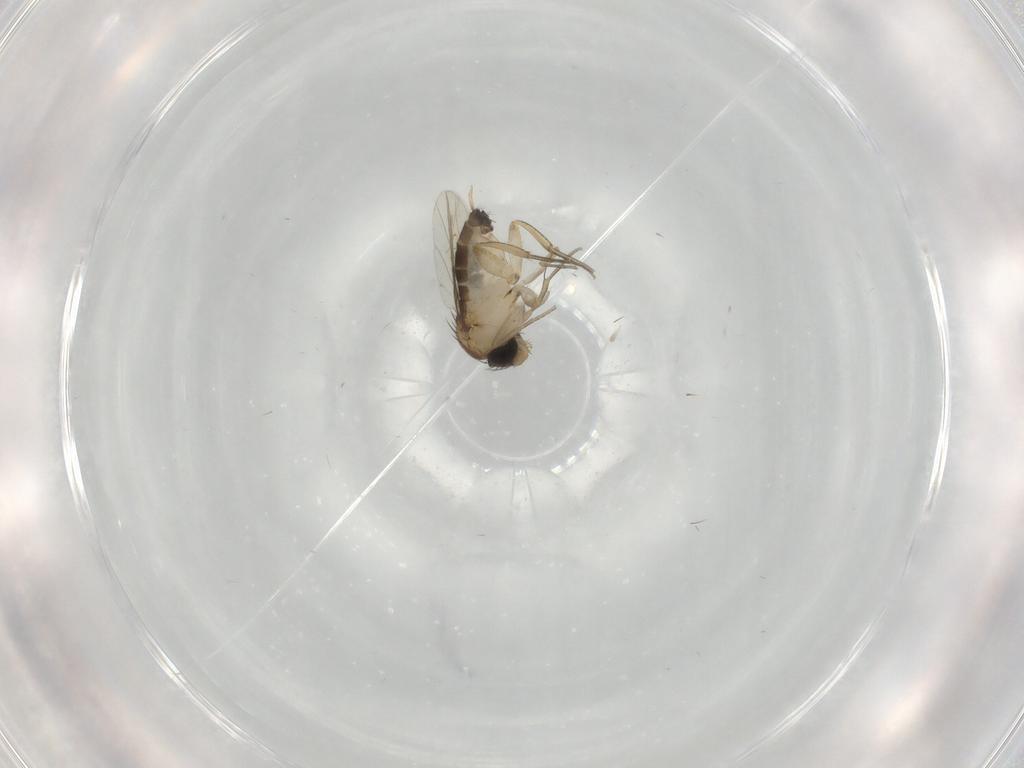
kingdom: Animalia
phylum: Arthropoda
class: Insecta
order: Diptera
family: Phoridae
